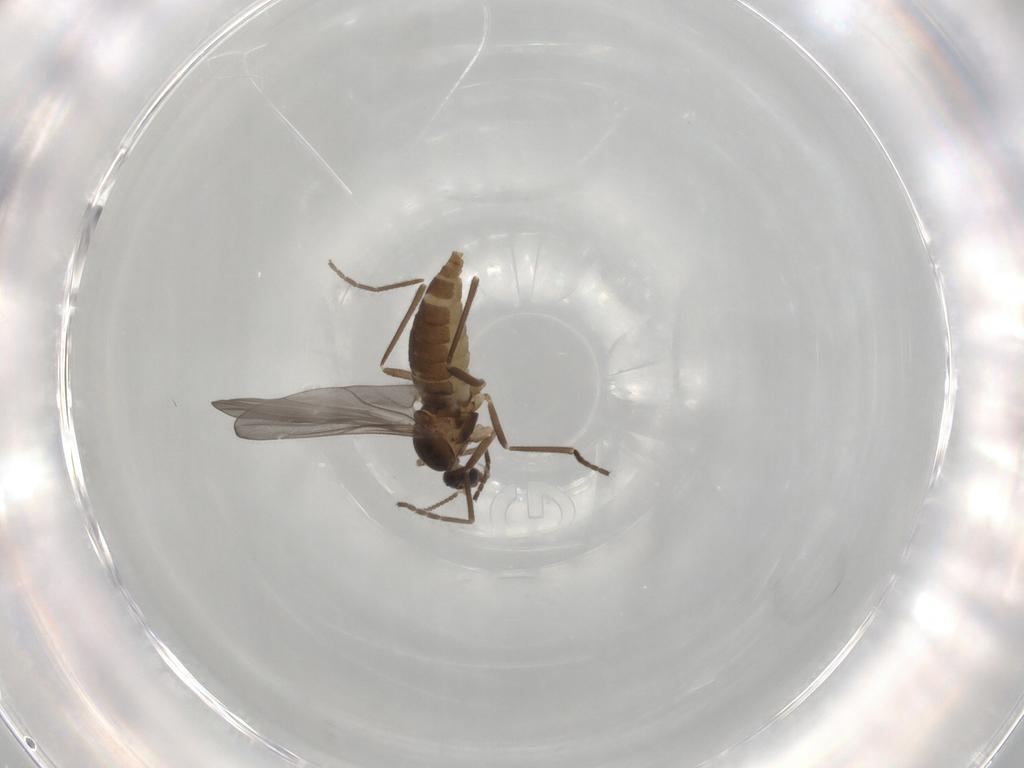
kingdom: Animalia
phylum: Arthropoda
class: Insecta
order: Diptera
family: Cecidomyiidae
